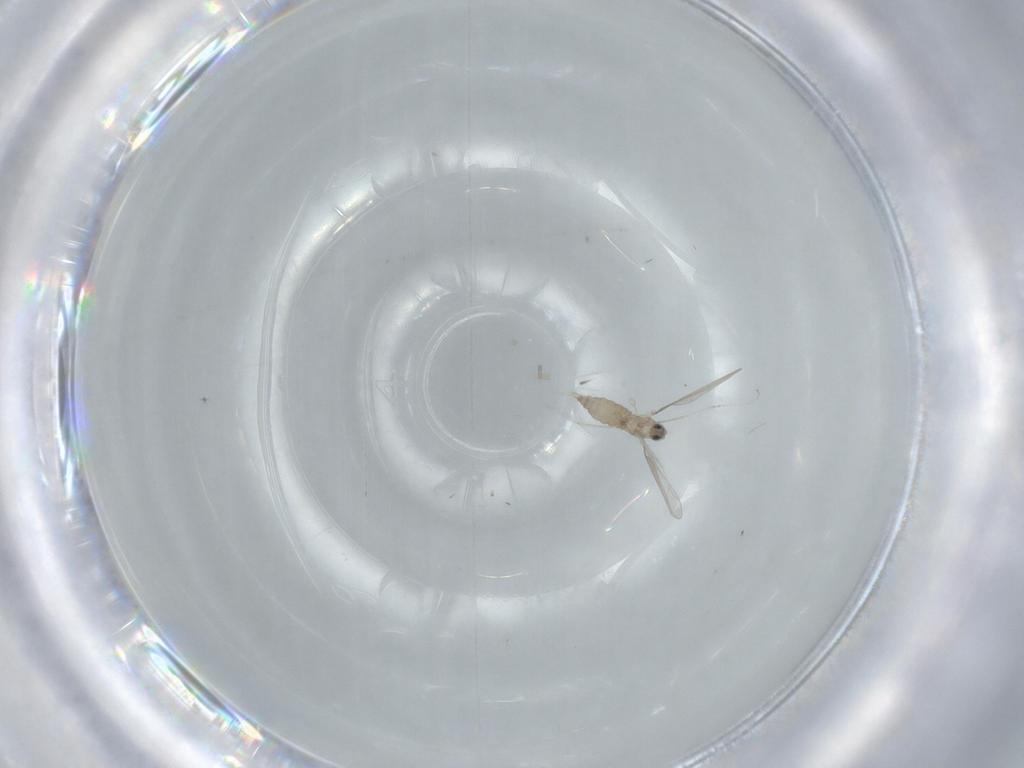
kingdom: Animalia
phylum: Arthropoda
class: Insecta
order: Diptera
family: Cecidomyiidae
